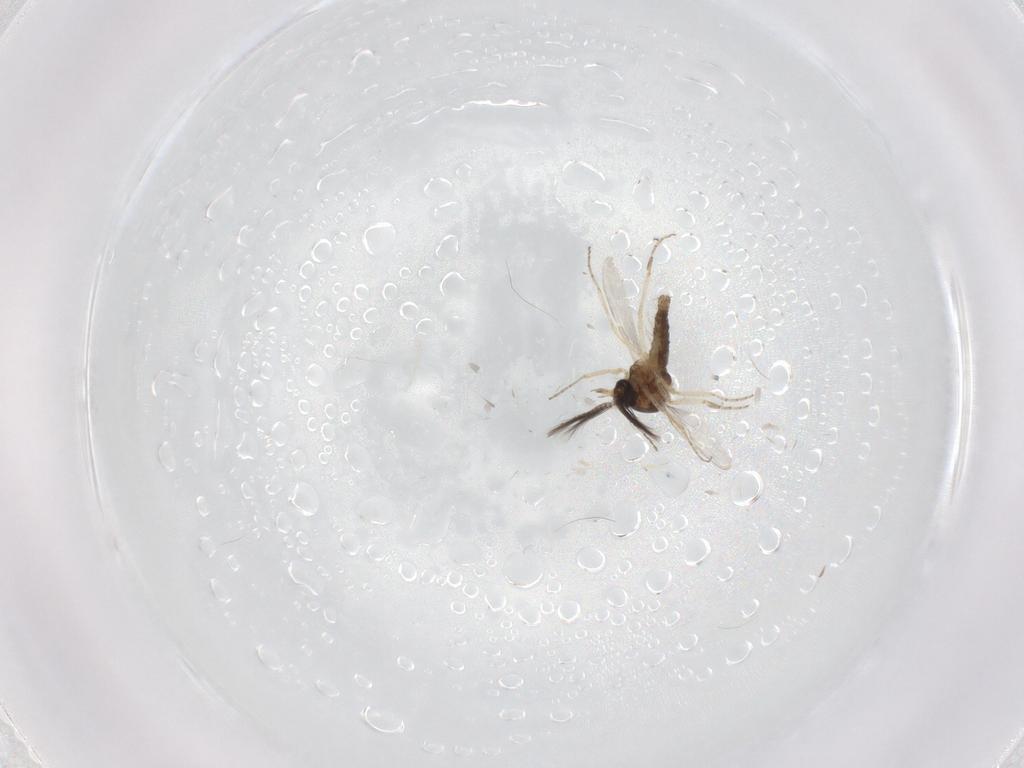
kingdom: Animalia
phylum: Arthropoda
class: Insecta
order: Diptera
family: Ceratopogonidae
